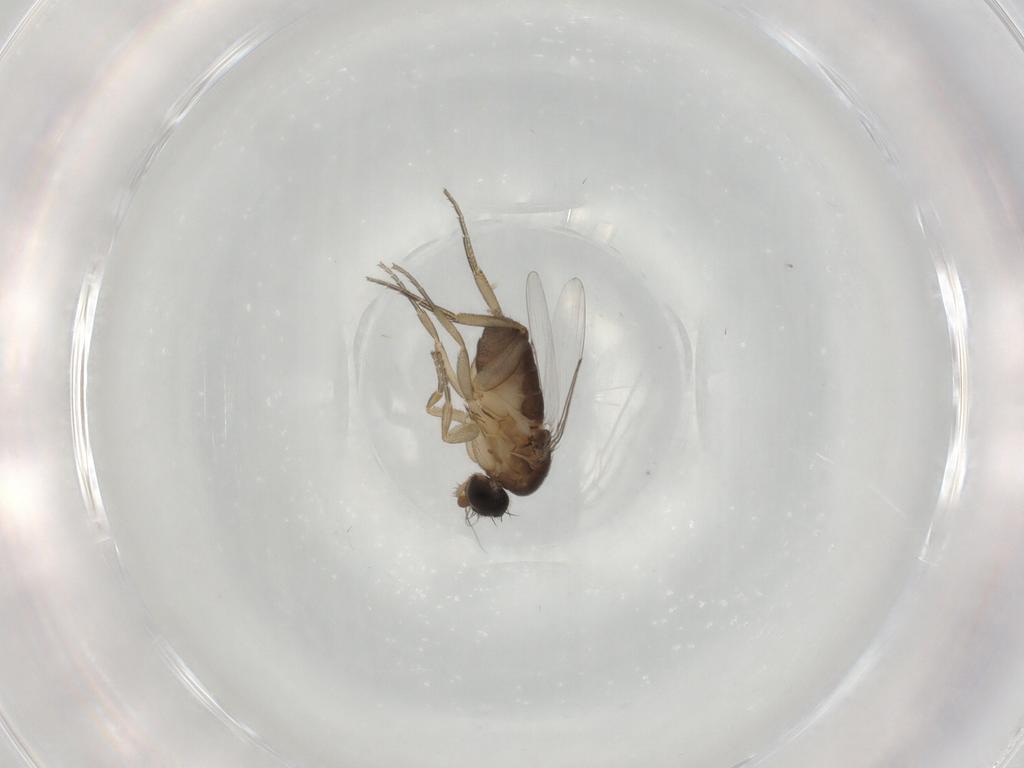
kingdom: Animalia
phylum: Arthropoda
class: Insecta
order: Diptera
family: Phoridae
